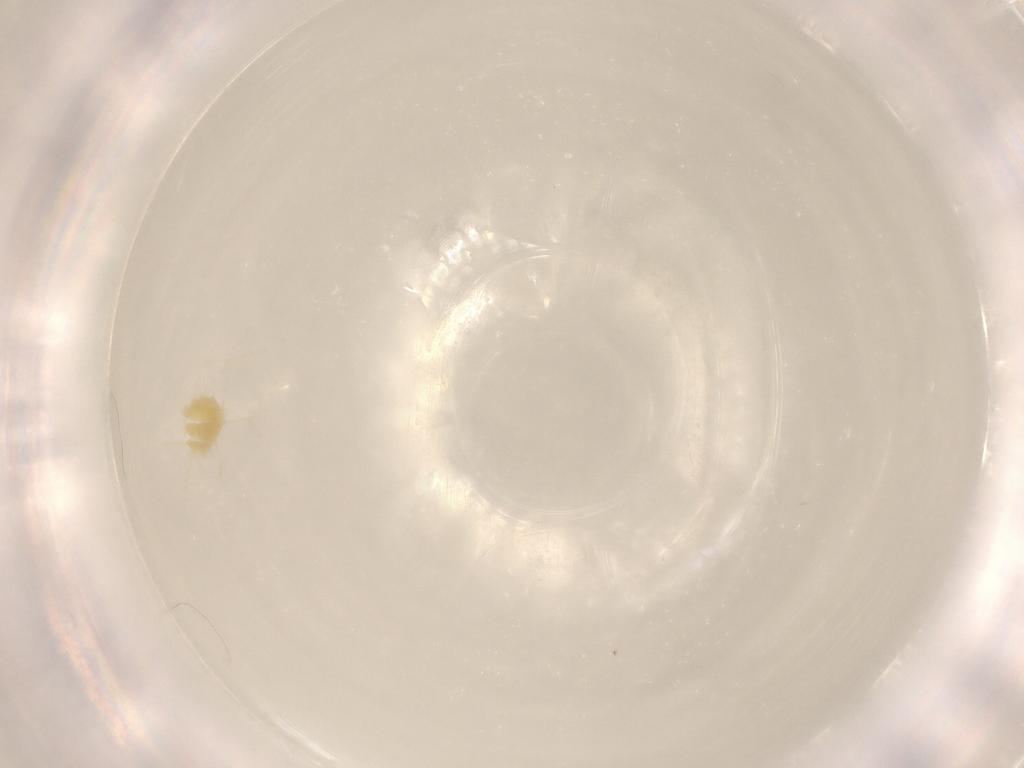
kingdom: Animalia
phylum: Arthropoda
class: Arachnida
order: Trombidiformes
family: Tetranychidae
